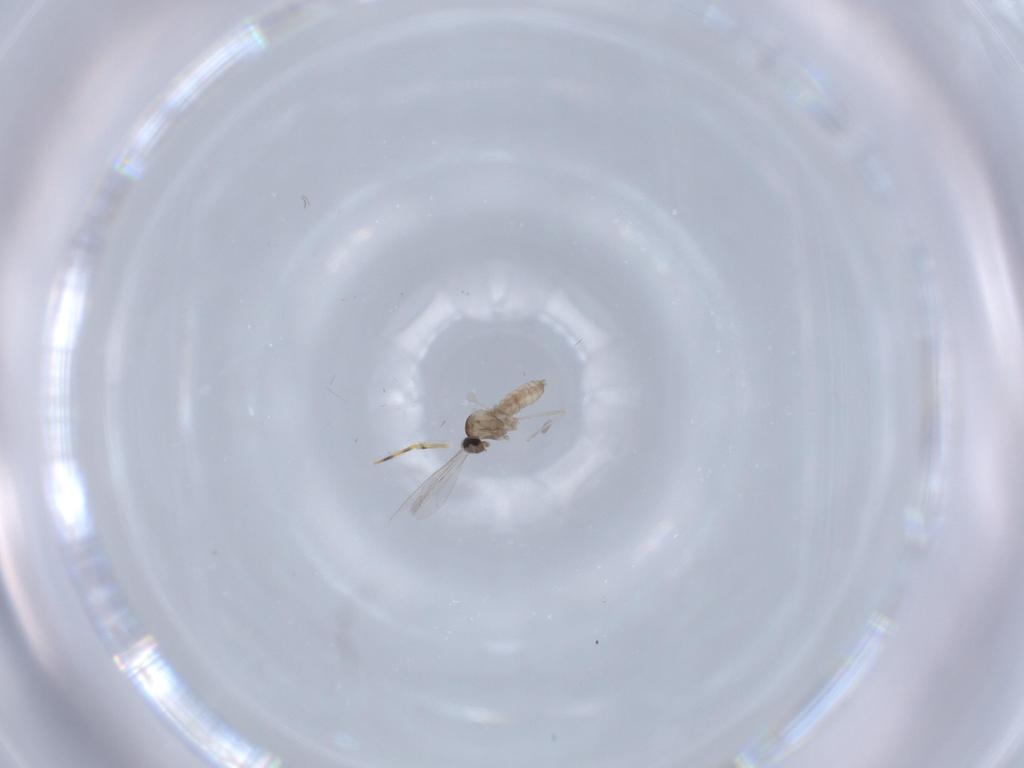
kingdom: Animalia
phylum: Arthropoda
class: Insecta
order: Diptera
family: Cecidomyiidae
